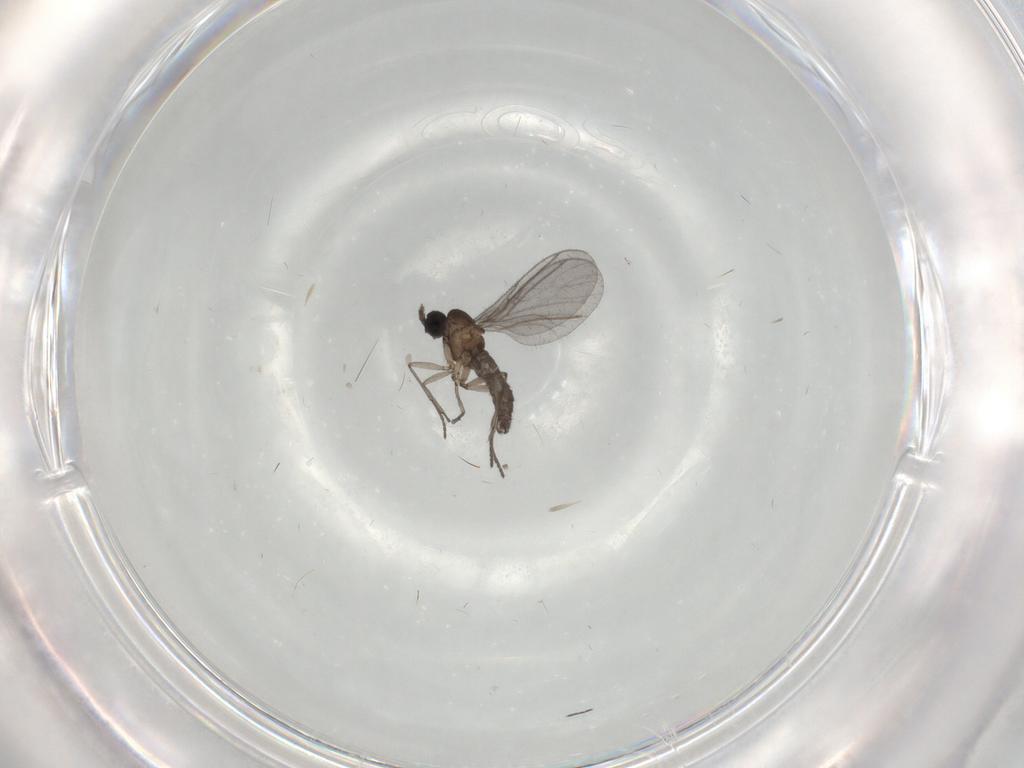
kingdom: Animalia
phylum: Arthropoda
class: Insecta
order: Diptera
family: Sciaridae
